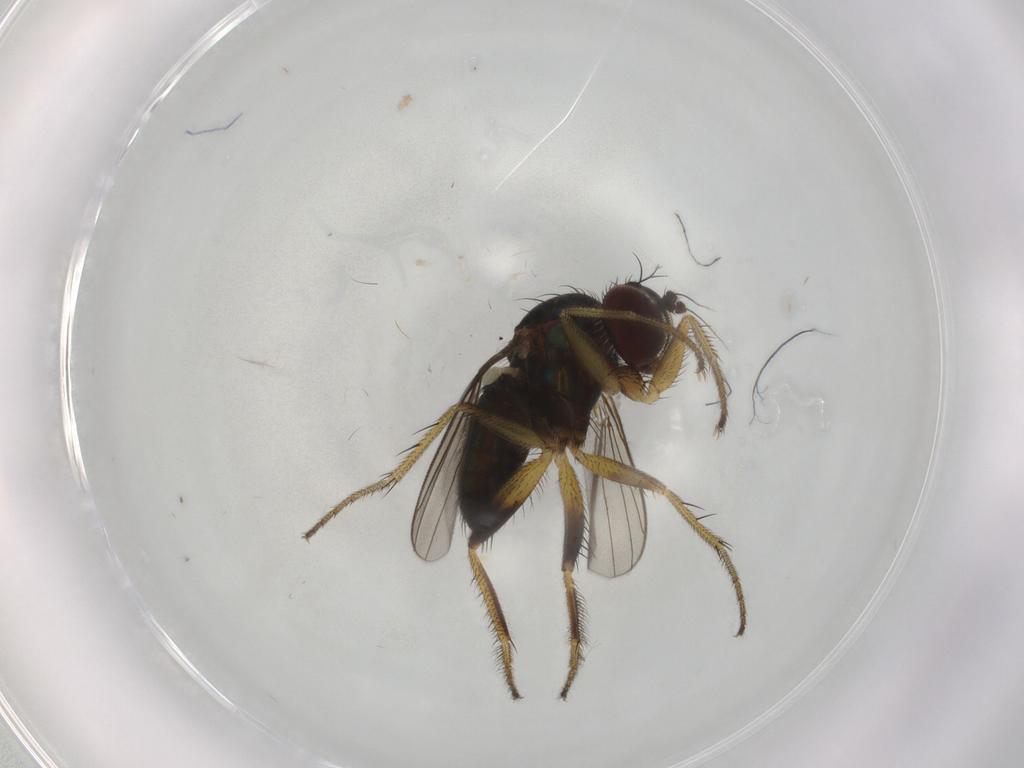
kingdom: Animalia
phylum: Arthropoda
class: Insecta
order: Diptera
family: Dolichopodidae
